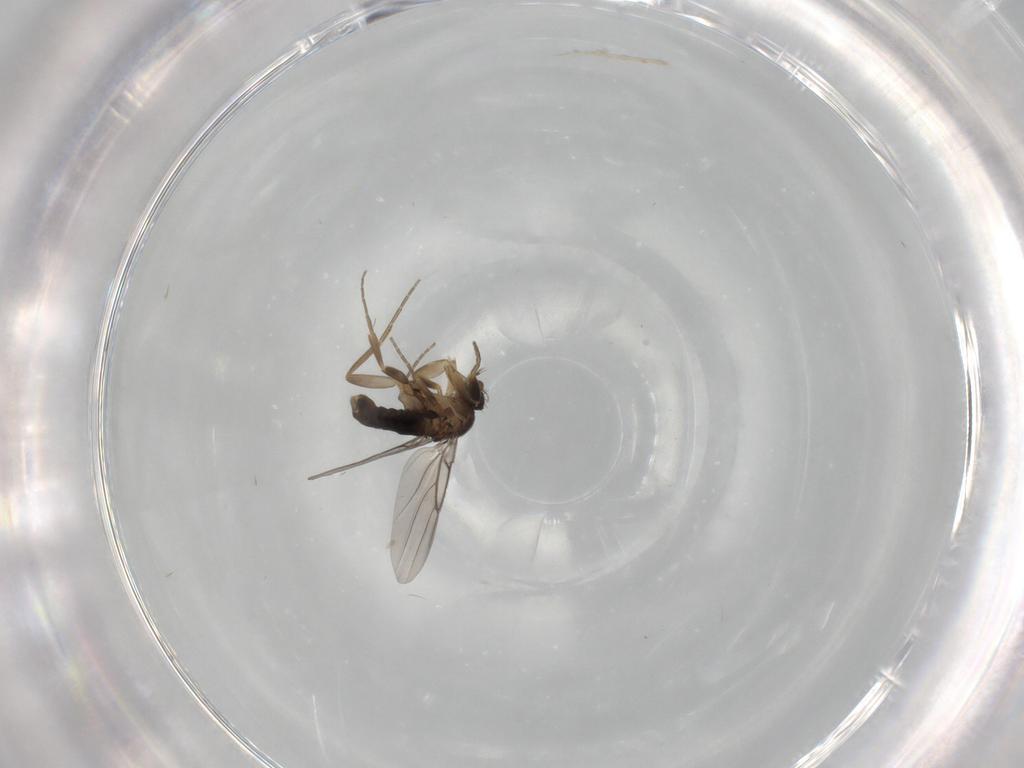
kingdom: Animalia
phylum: Arthropoda
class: Insecta
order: Diptera
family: Phoridae
